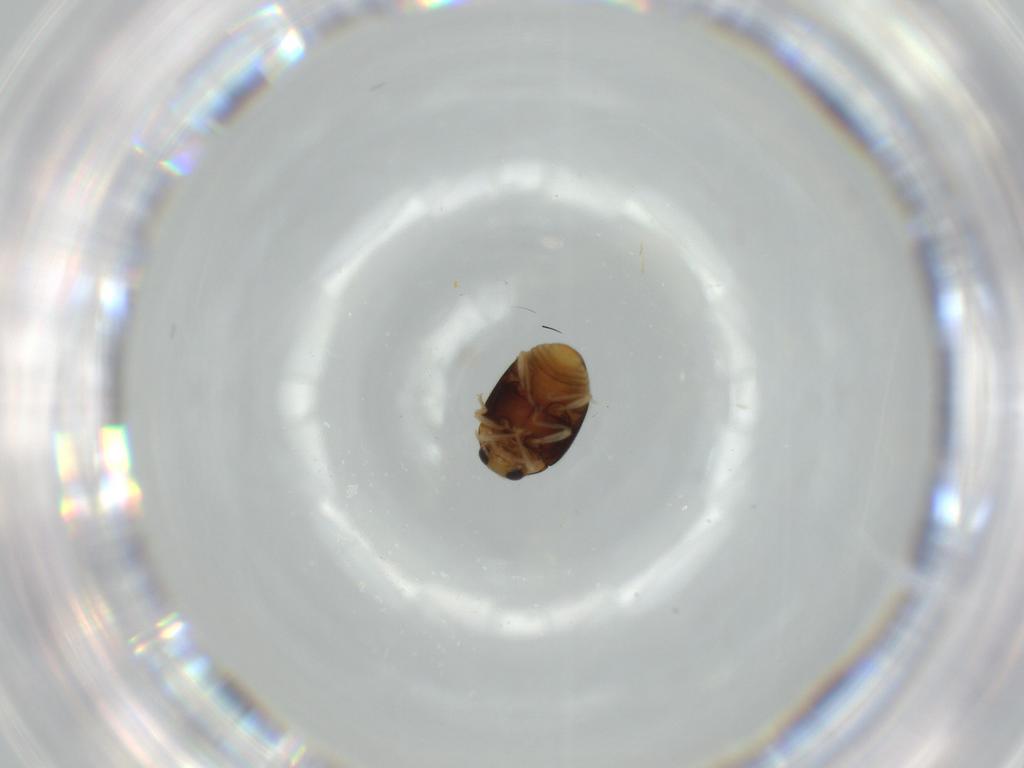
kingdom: Animalia
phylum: Arthropoda
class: Insecta
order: Coleoptera
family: Coccinellidae
